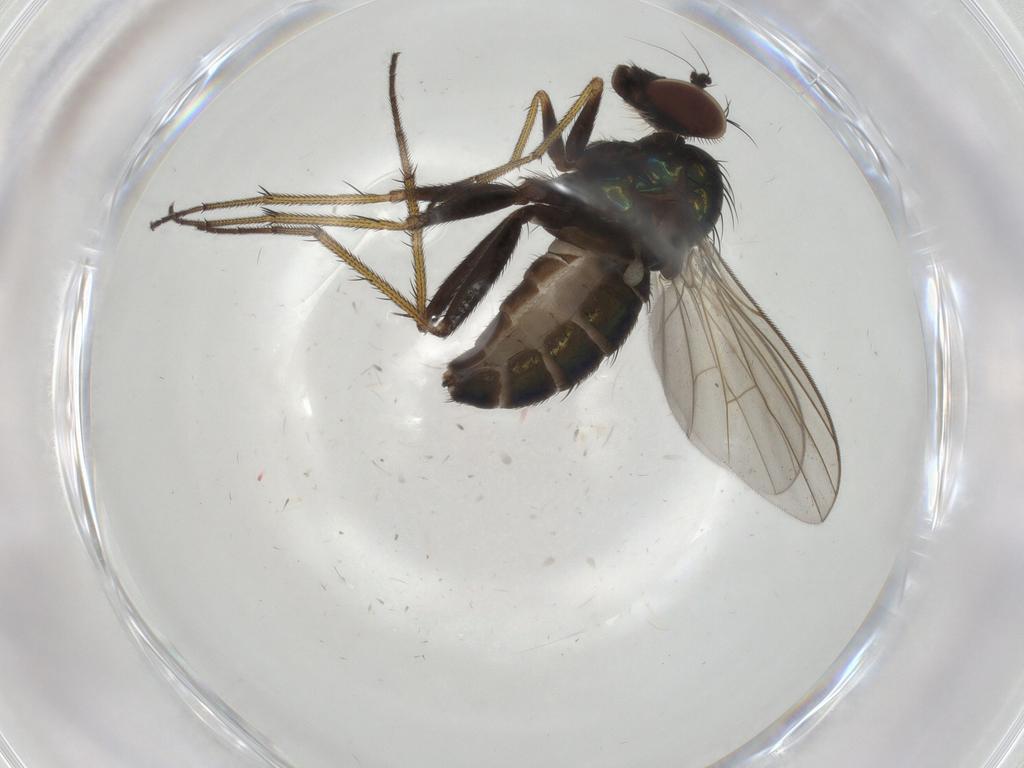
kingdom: Animalia
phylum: Arthropoda
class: Insecta
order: Diptera
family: Dolichopodidae
